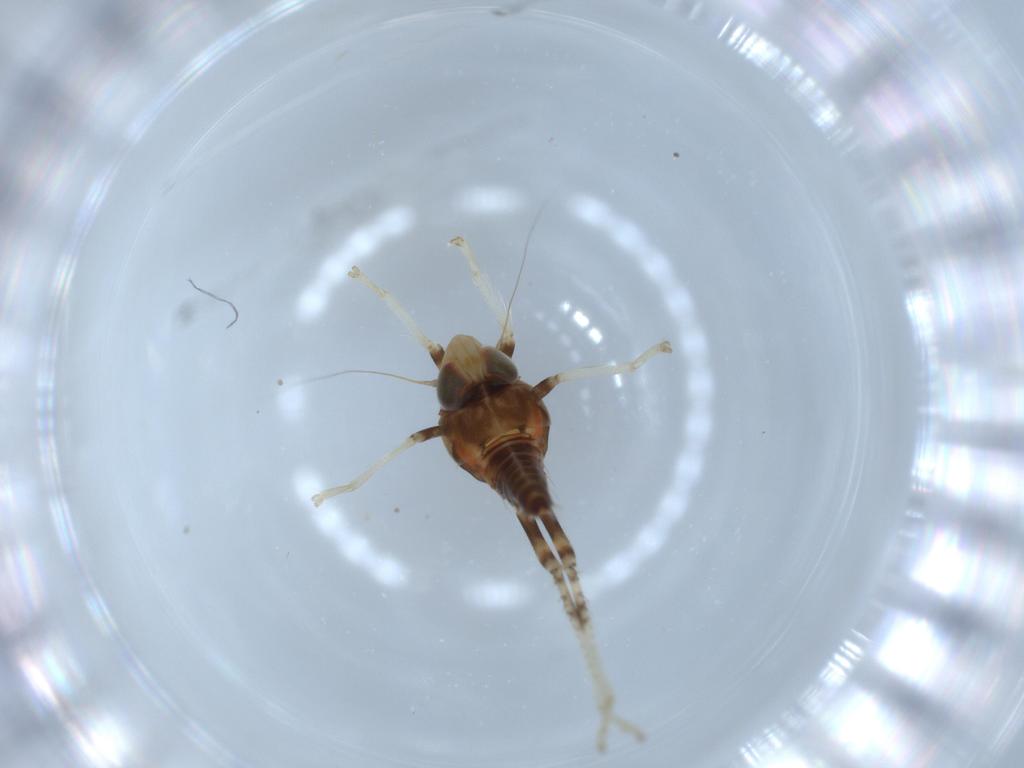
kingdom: Animalia
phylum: Arthropoda
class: Insecta
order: Hemiptera
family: Cicadellidae
